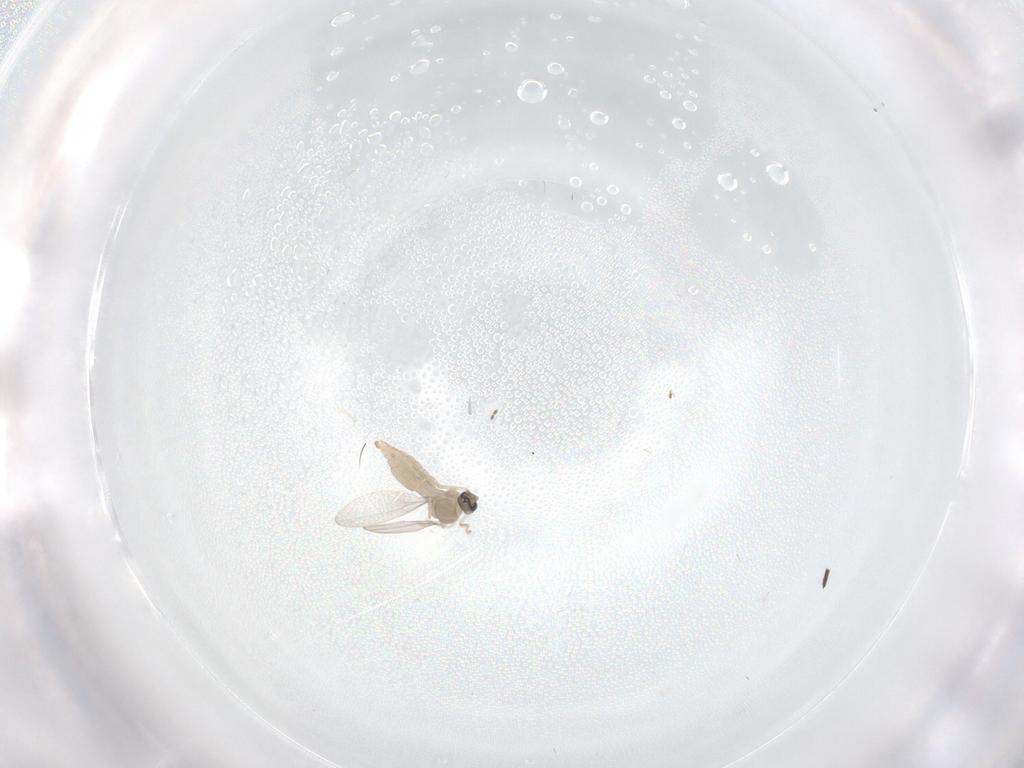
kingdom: Animalia
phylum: Arthropoda
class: Insecta
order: Diptera
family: Cecidomyiidae
